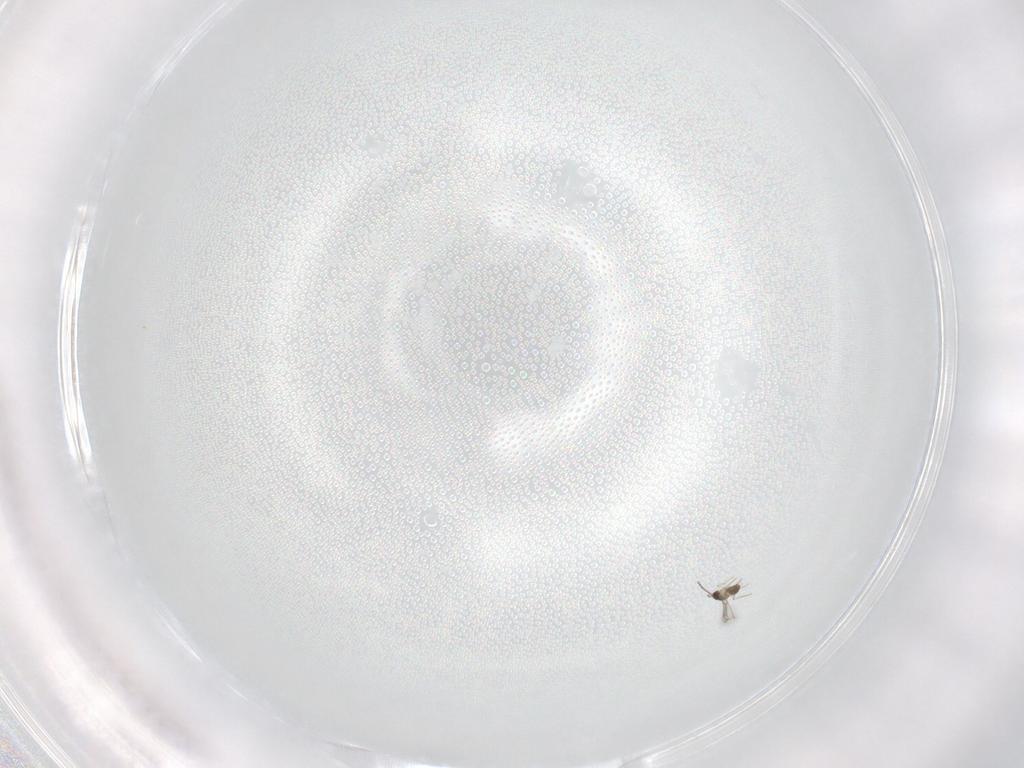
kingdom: Animalia
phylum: Arthropoda
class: Insecta
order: Hymenoptera
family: Mymaridae
